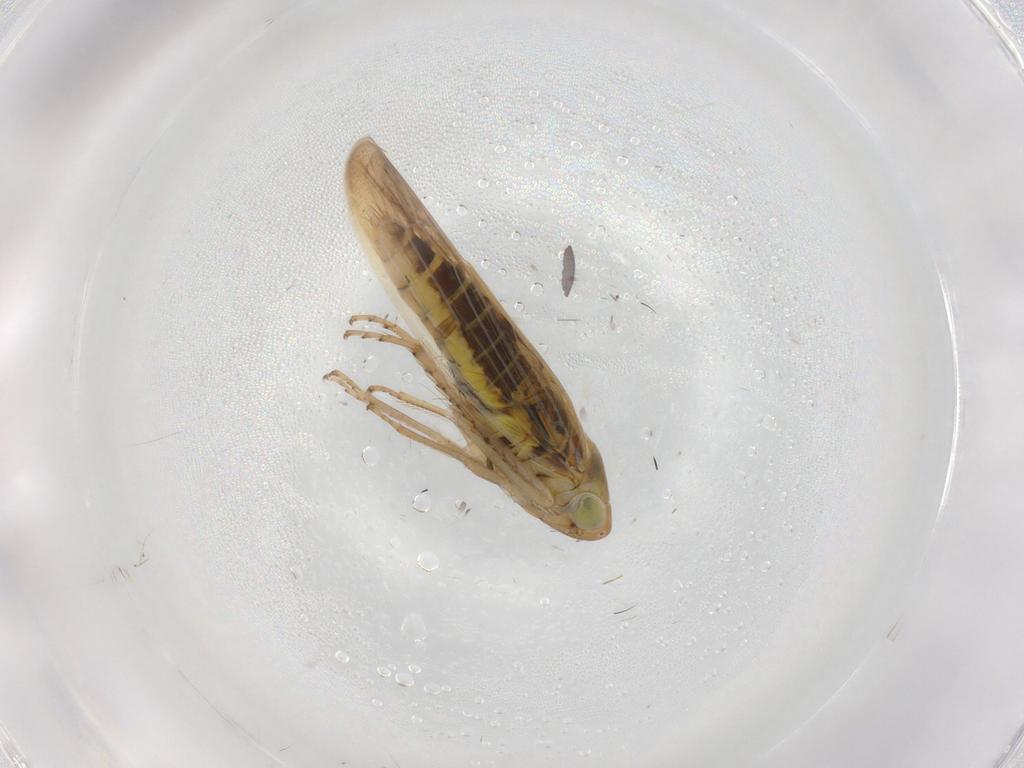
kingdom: Animalia
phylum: Arthropoda
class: Insecta
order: Hemiptera
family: Cicadellidae
